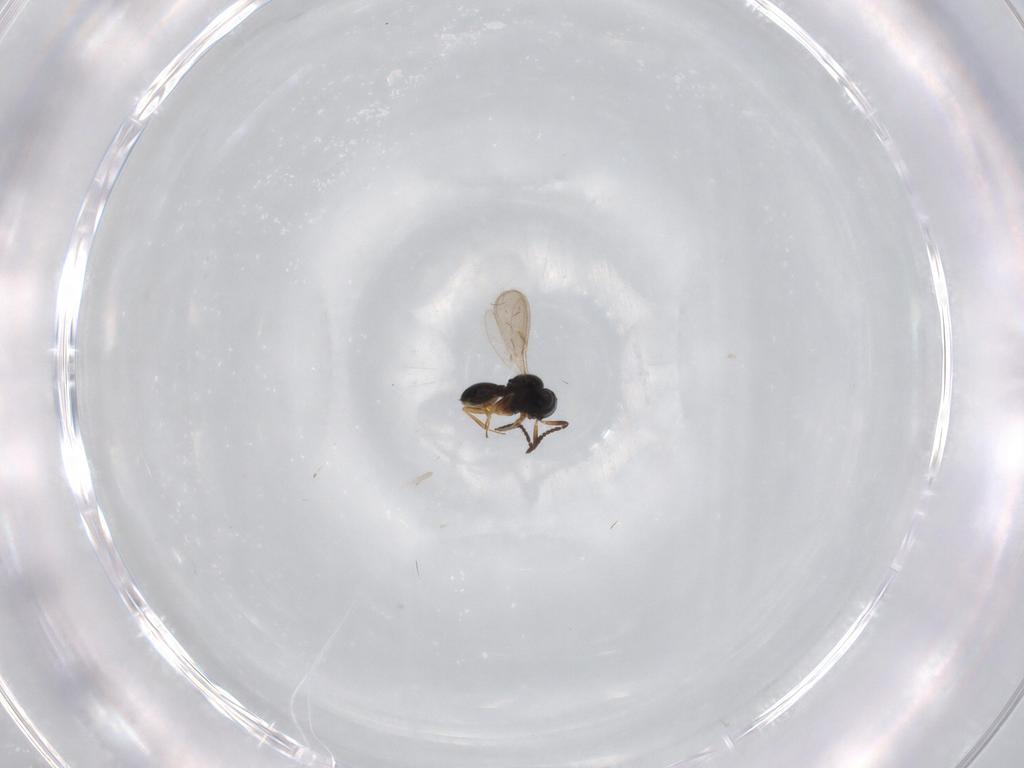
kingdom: Animalia
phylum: Arthropoda
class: Insecta
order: Hymenoptera
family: Scelionidae
